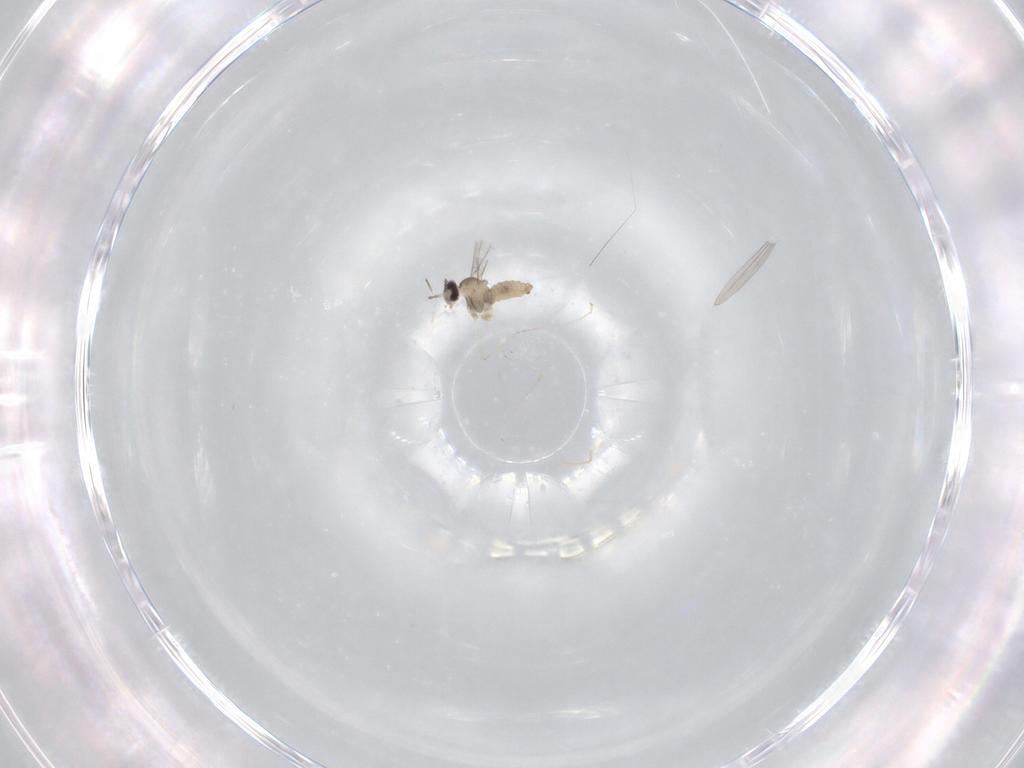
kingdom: Animalia
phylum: Arthropoda
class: Insecta
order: Diptera
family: Cecidomyiidae
